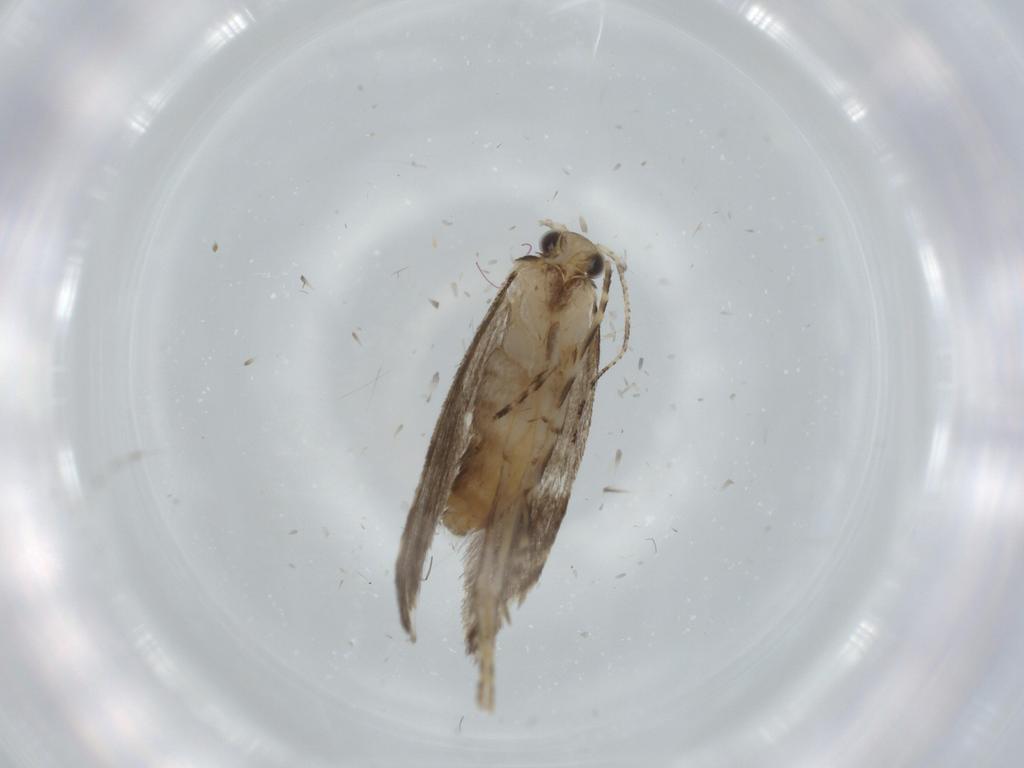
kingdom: Animalia
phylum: Arthropoda
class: Insecta
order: Lepidoptera
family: Tineidae
